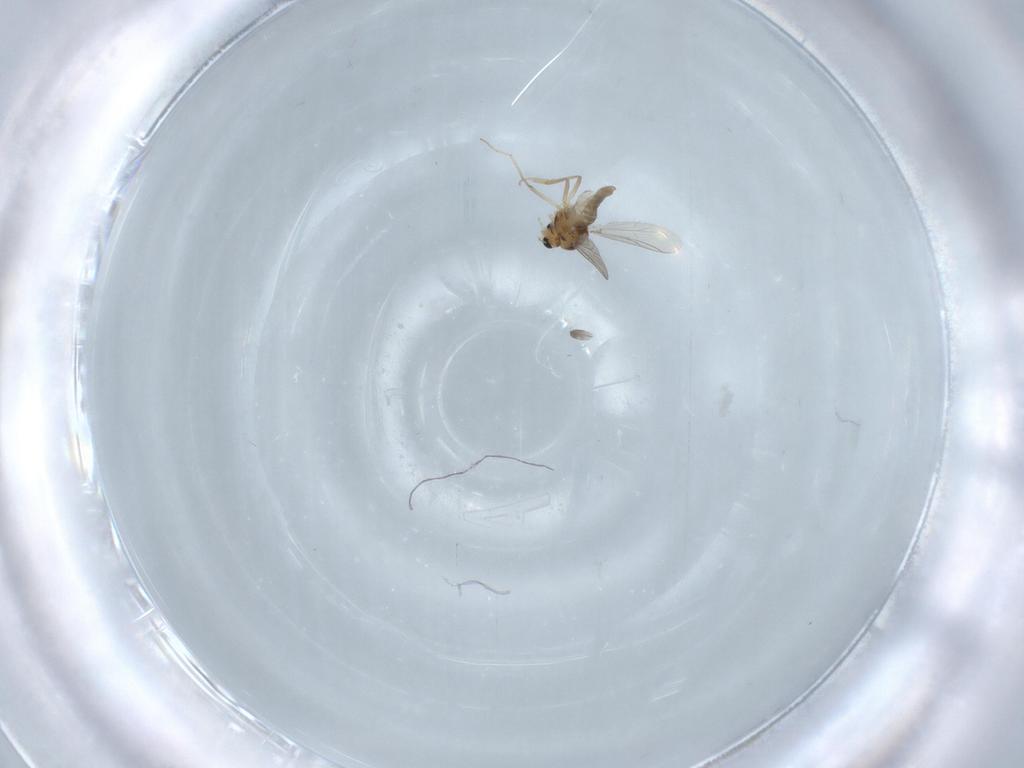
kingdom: Animalia
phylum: Arthropoda
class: Insecta
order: Diptera
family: Chironomidae
